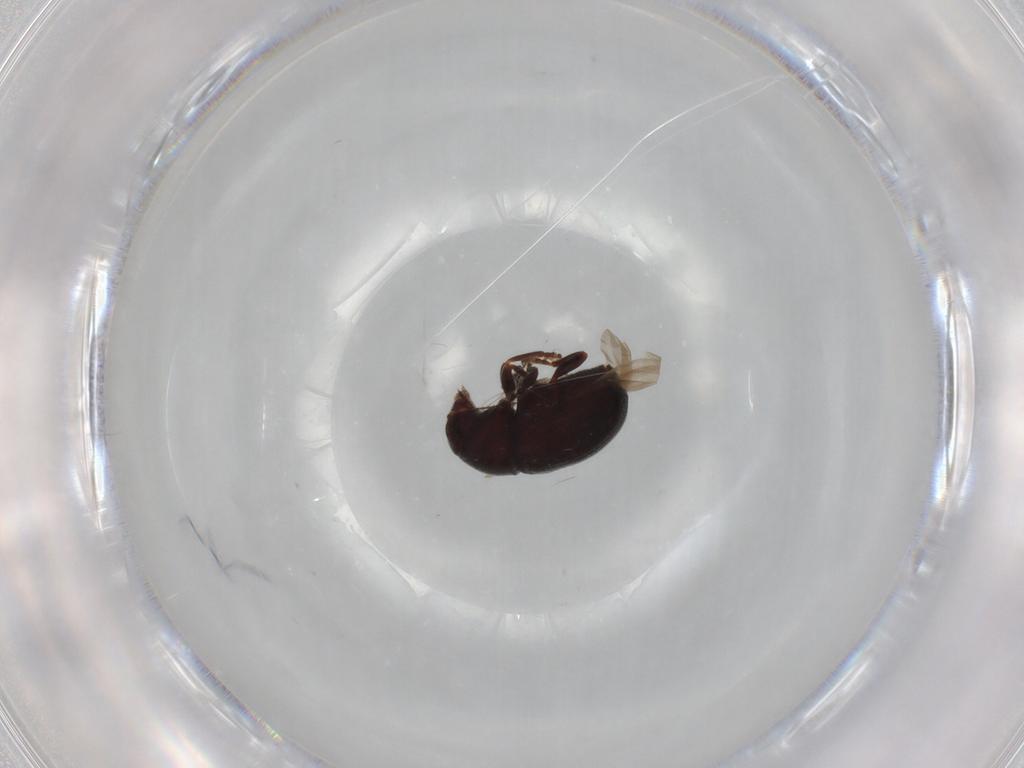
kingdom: Animalia
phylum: Arthropoda
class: Insecta
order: Coleoptera
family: Anthribidae
